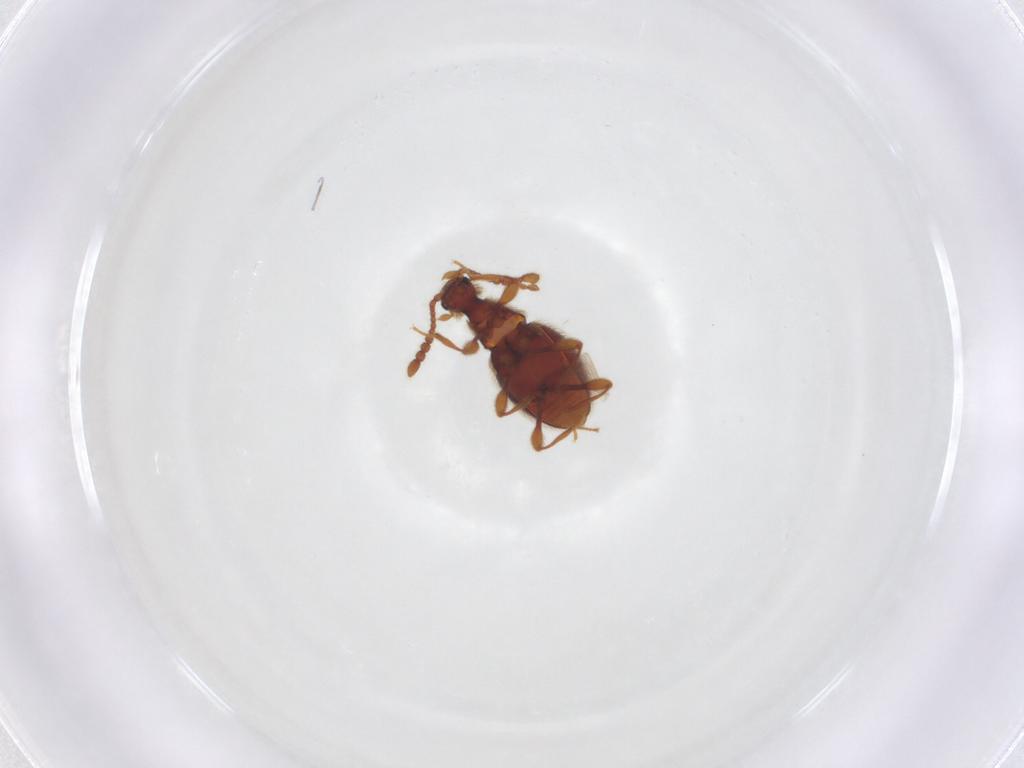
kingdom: Animalia
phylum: Arthropoda
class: Insecta
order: Coleoptera
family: Staphylinidae
